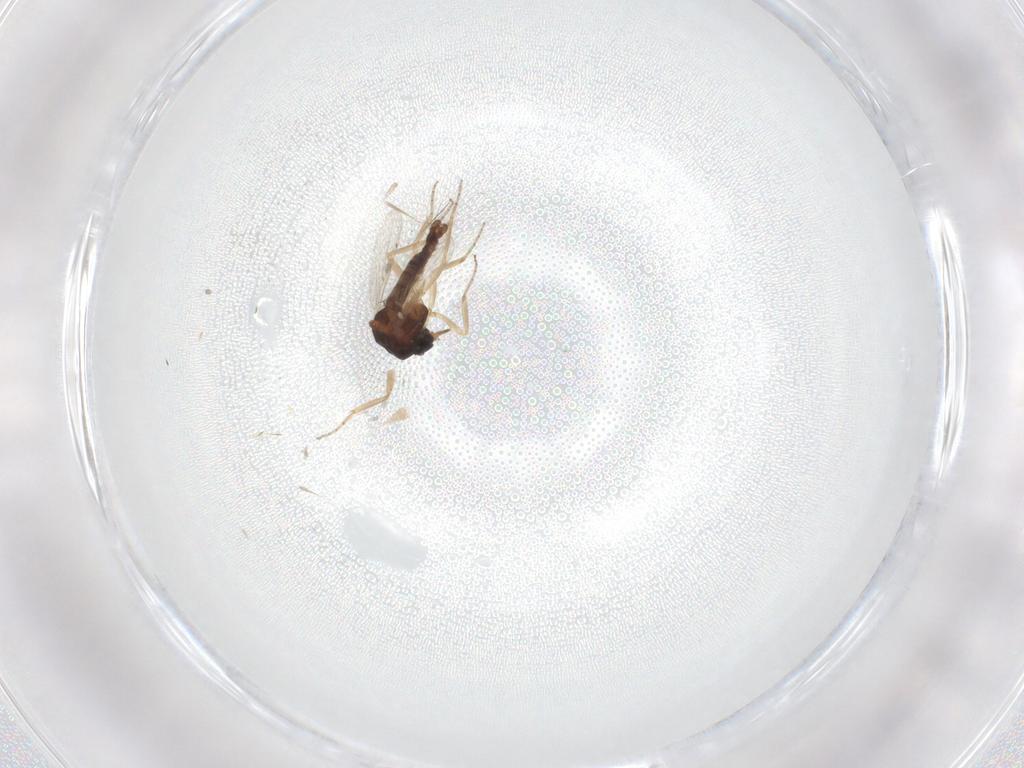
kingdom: Animalia
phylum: Arthropoda
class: Insecta
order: Diptera
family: Ceratopogonidae
